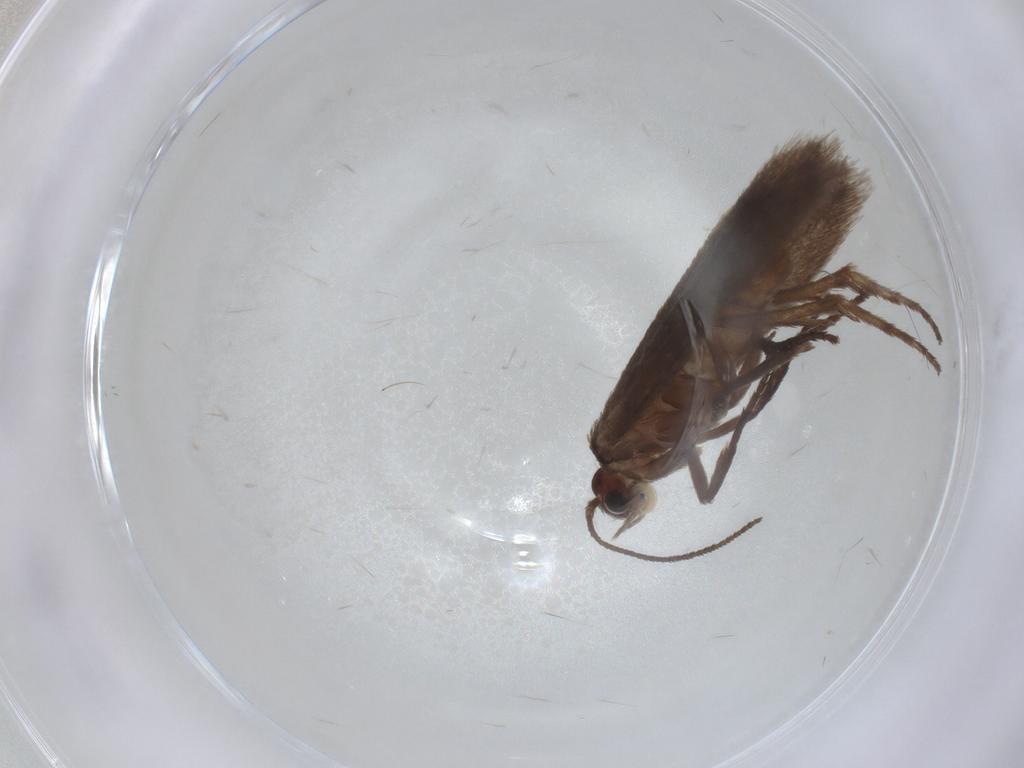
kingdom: Animalia
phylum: Arthropoda
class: Insecta
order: Lepidoptera
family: Limacodidae
